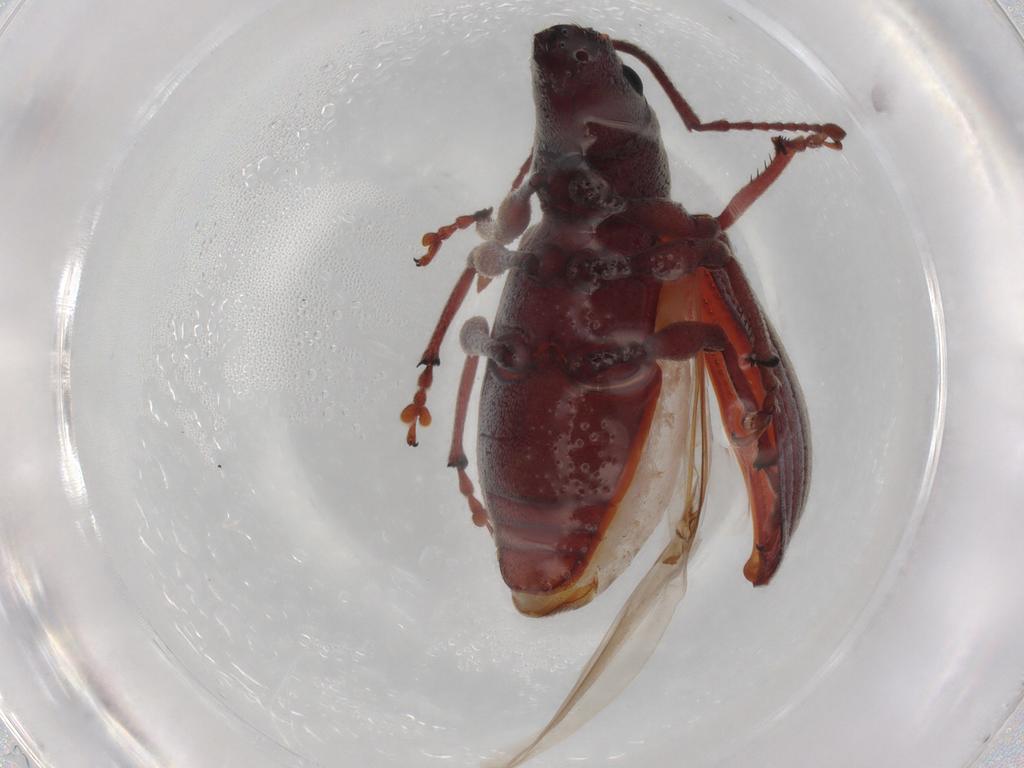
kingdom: Animalia
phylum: Arthropoda
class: Insecta
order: Coleoptera
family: Curculionidae
